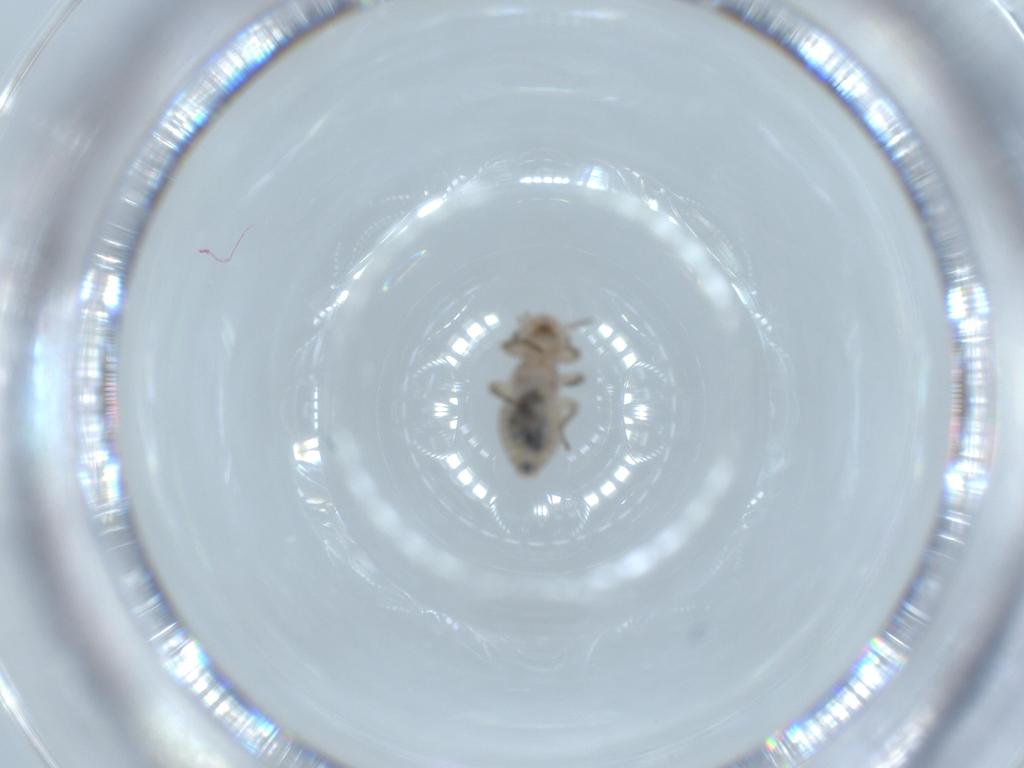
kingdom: Animalia
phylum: Arthropoda
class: Insecta
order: Psocodea
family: Psocidae
